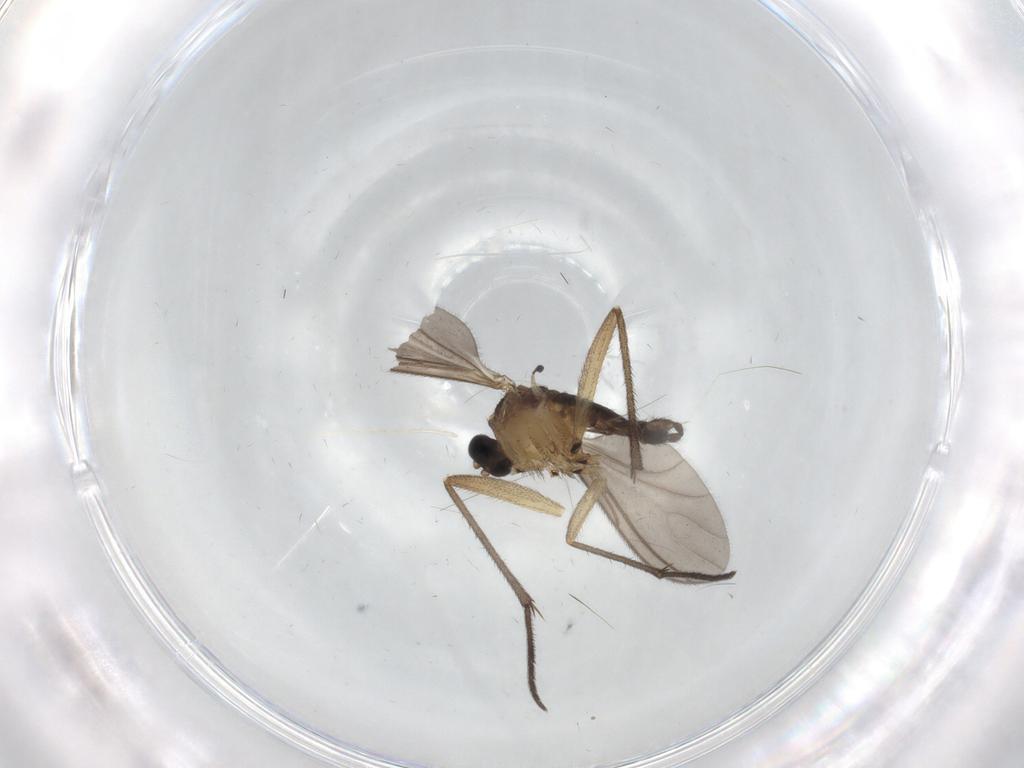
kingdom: Animalia
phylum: Arthropoda
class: Insecta
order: Diptera
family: Sciaridae
